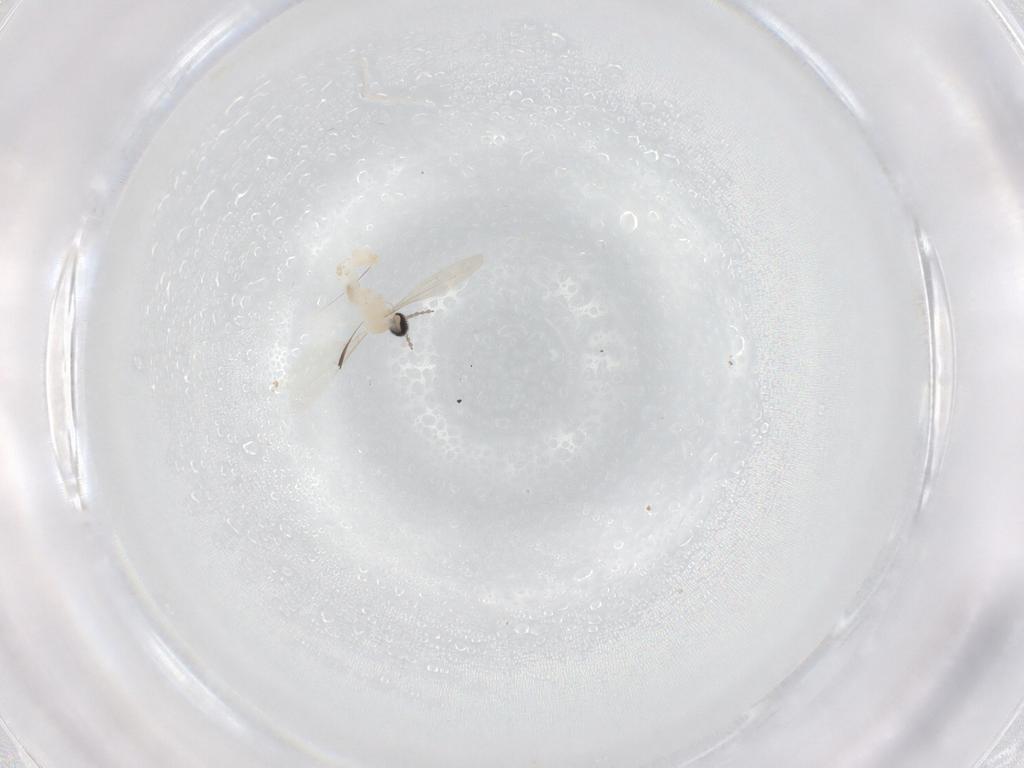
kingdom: Animalia
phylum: Arthropoda
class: Insecta
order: Diptera
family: Cecidomyiidae
